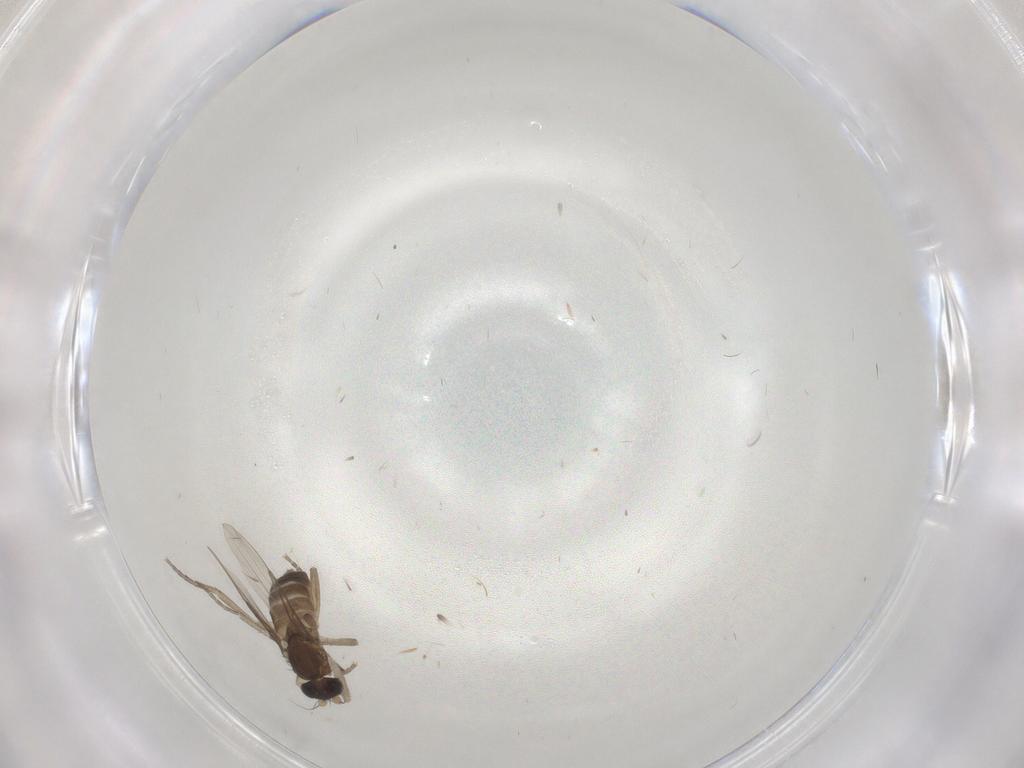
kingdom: Animalia
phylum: Arthropoda
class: Insecta
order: Diptera
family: Phoridae
